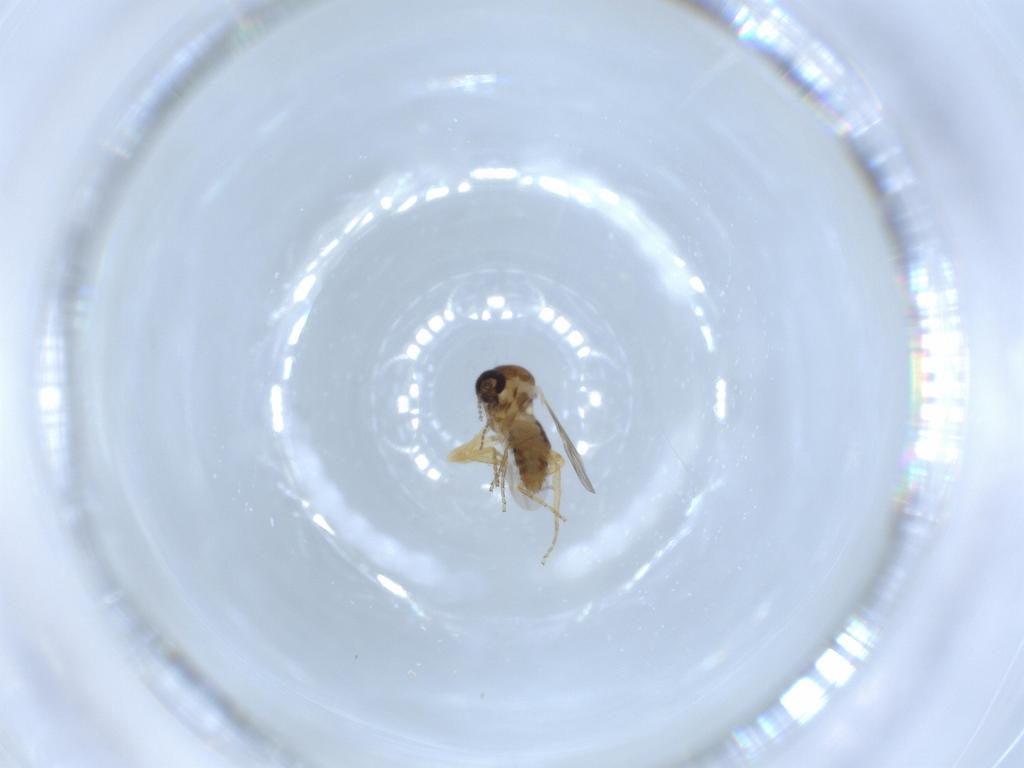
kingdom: Animalia
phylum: Arthropoda
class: Insecta
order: Diptera
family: Ceratopogonidae
